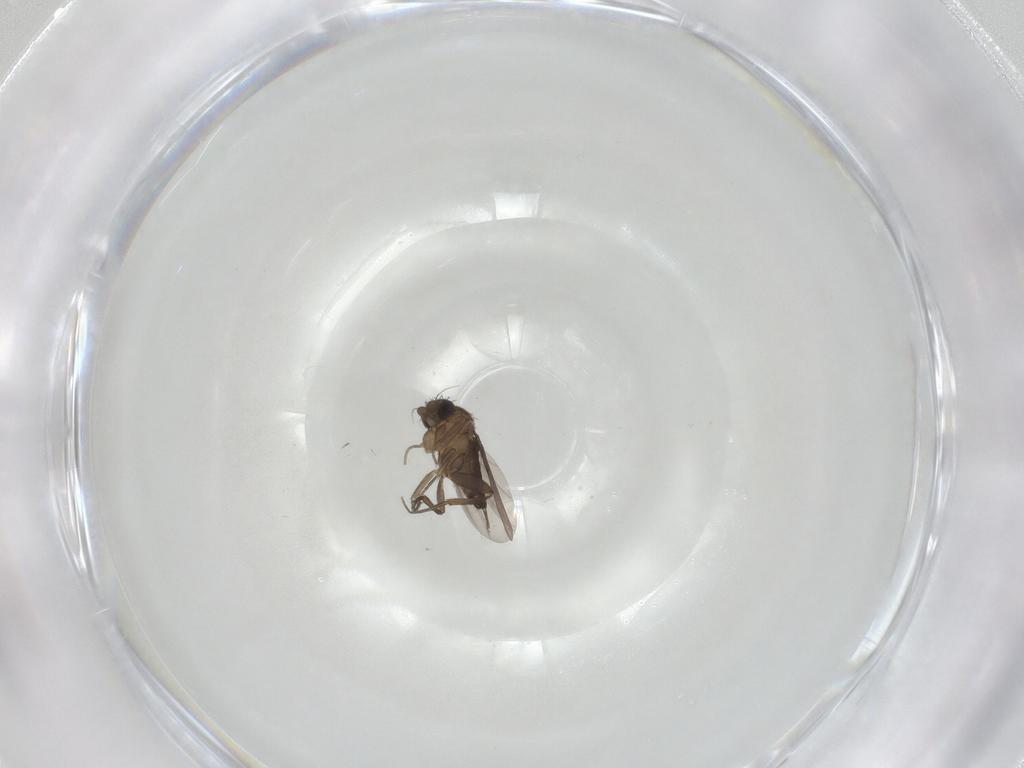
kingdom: Animalia
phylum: Arthropoda
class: Insecta
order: Diptera
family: Phoridae
